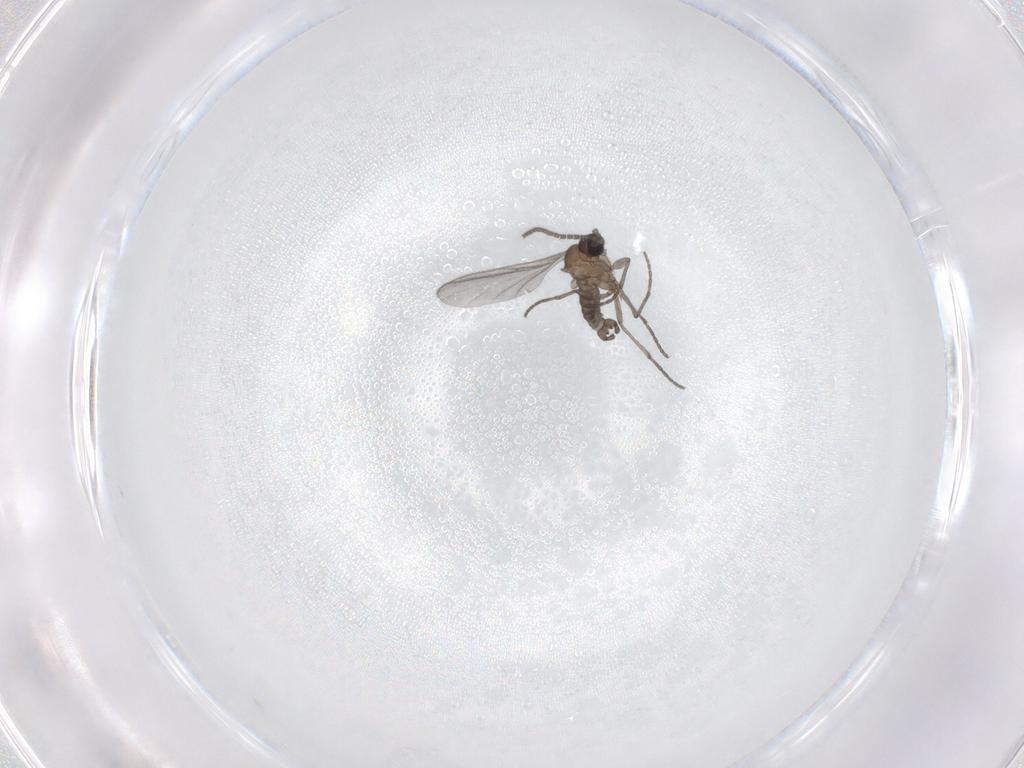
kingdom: Animalia
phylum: Arthropoda
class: Insecta
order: Diptera
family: Sciaridae
